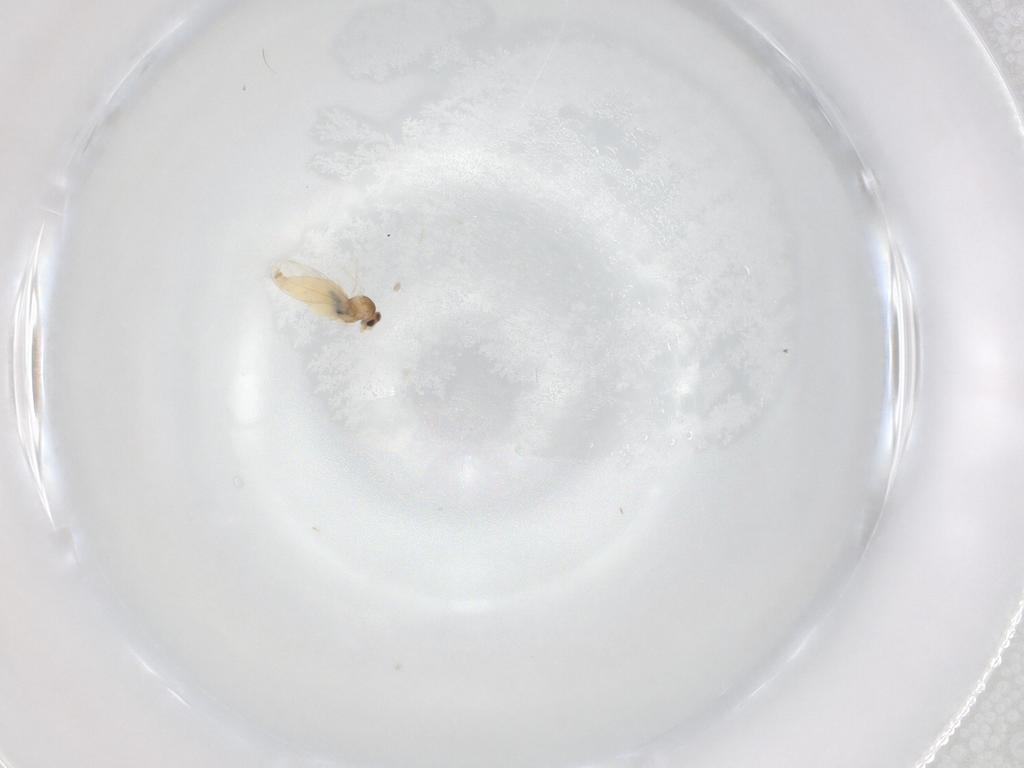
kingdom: Animalia
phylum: Arthropoda
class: Insecta
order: Diptera
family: Cecidomyiidae
